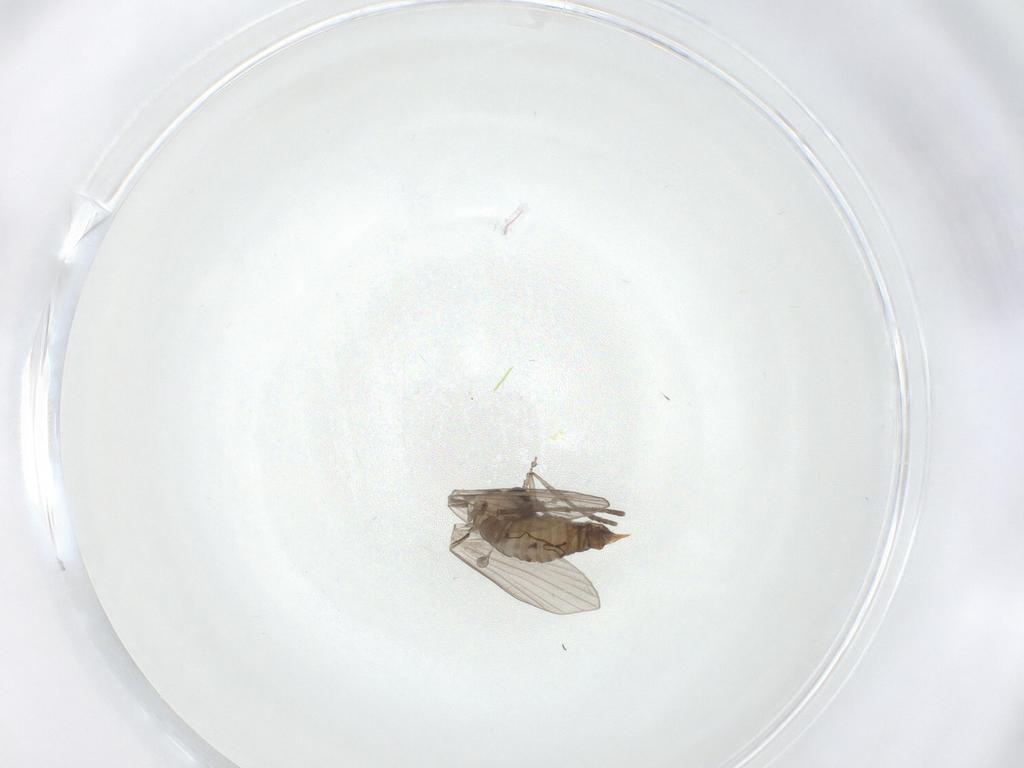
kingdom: Animalia
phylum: Arthropoda
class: Insecta
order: Diptera
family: Psychodidae
